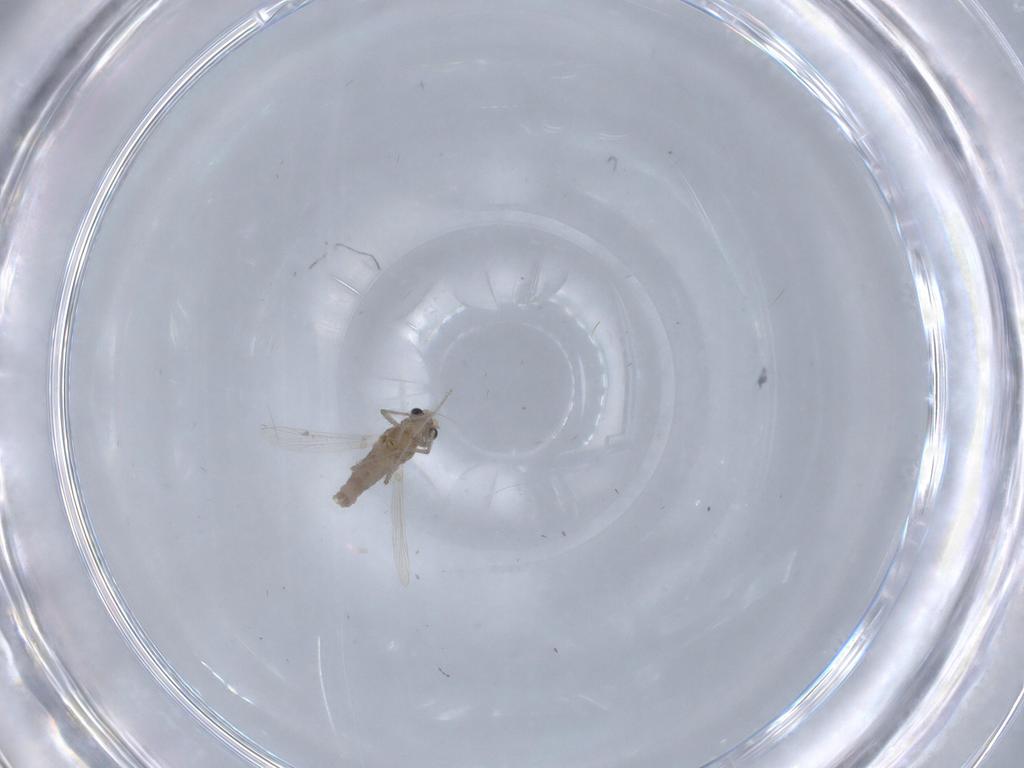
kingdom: Animalia
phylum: Arthropoda
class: Insecta
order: Diptera
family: Chironomidae
